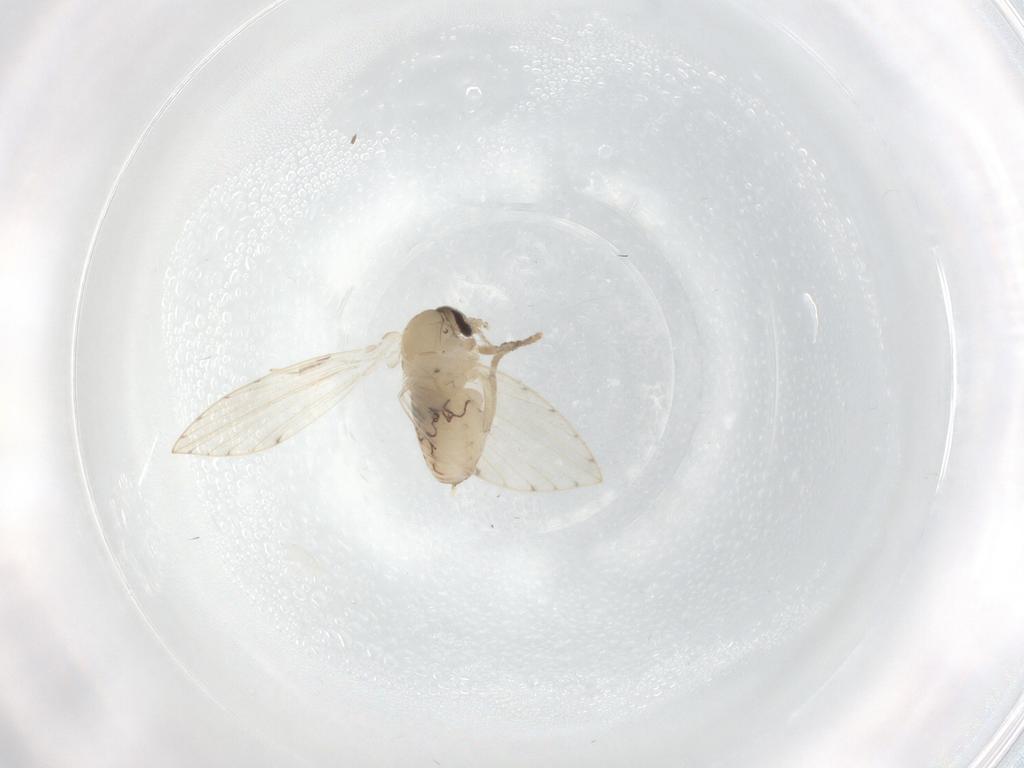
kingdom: Animalia
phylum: Arthropoda
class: Insecta
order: Diptera
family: Psychodidae
